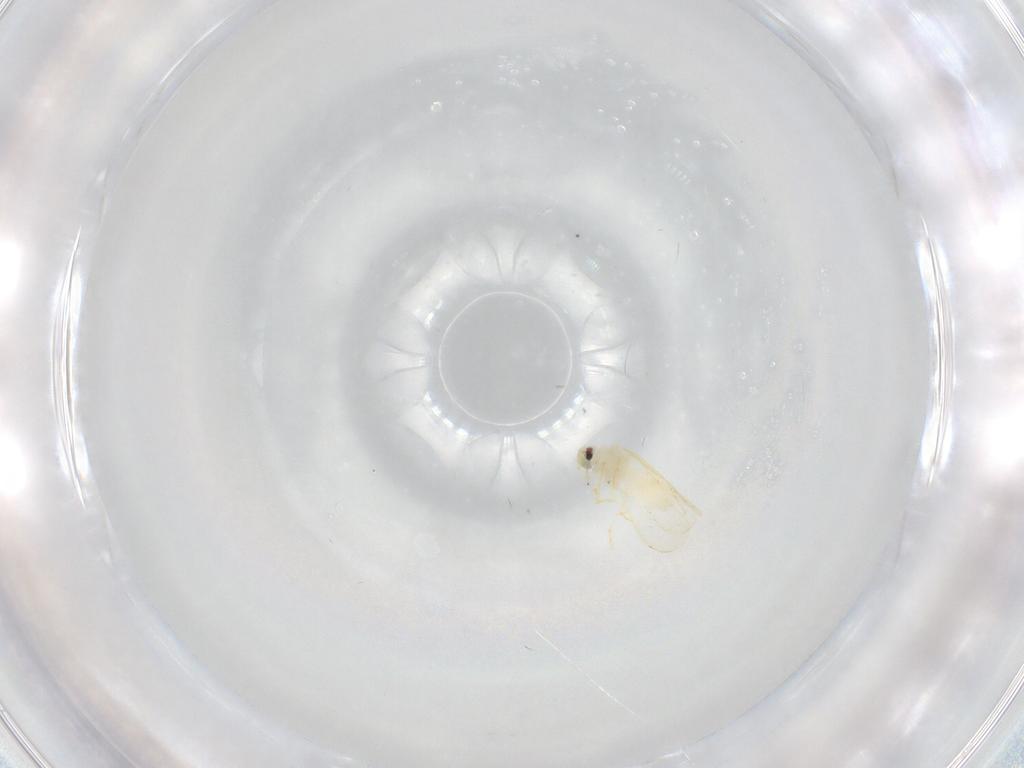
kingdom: Animalia
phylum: Arthropoda
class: Insecta
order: Hemiptera
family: Aleyrodidae
